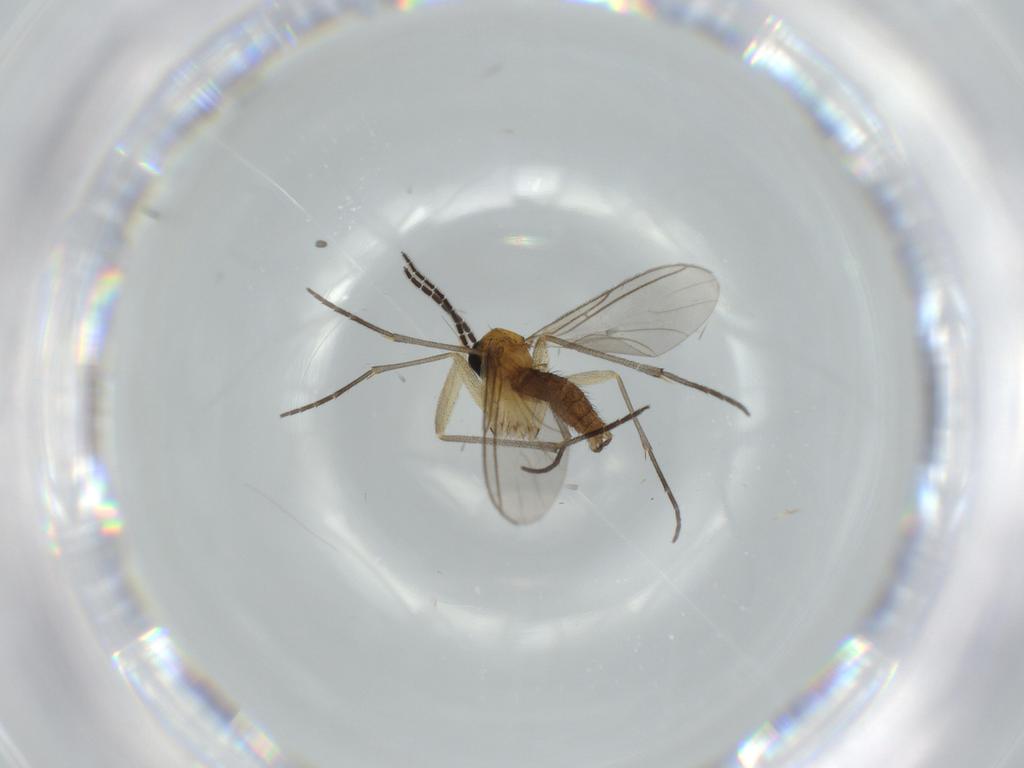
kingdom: Animalia
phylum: Arthropoda
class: Insecta
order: Diptera
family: Sciaridae
